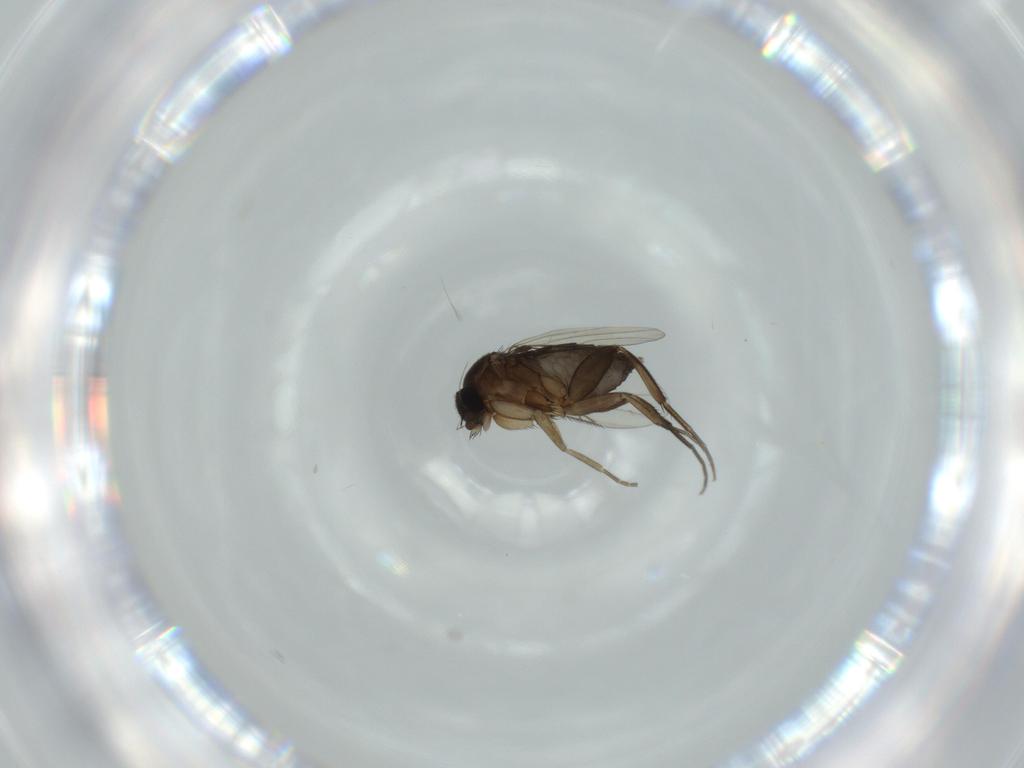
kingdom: Animalia
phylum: Arthropoda
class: Insecta
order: Diptera
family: Phoridae
